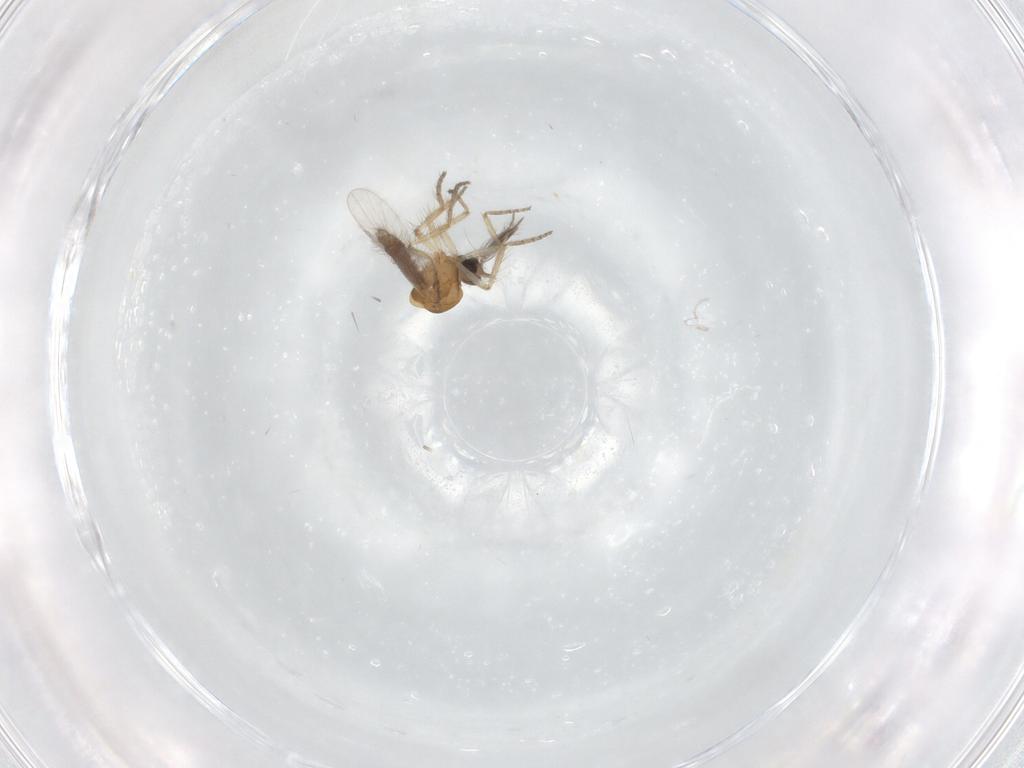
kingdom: Animalia
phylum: Arthropoda
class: Insecta
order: Diptera
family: Ceratopogonidae
